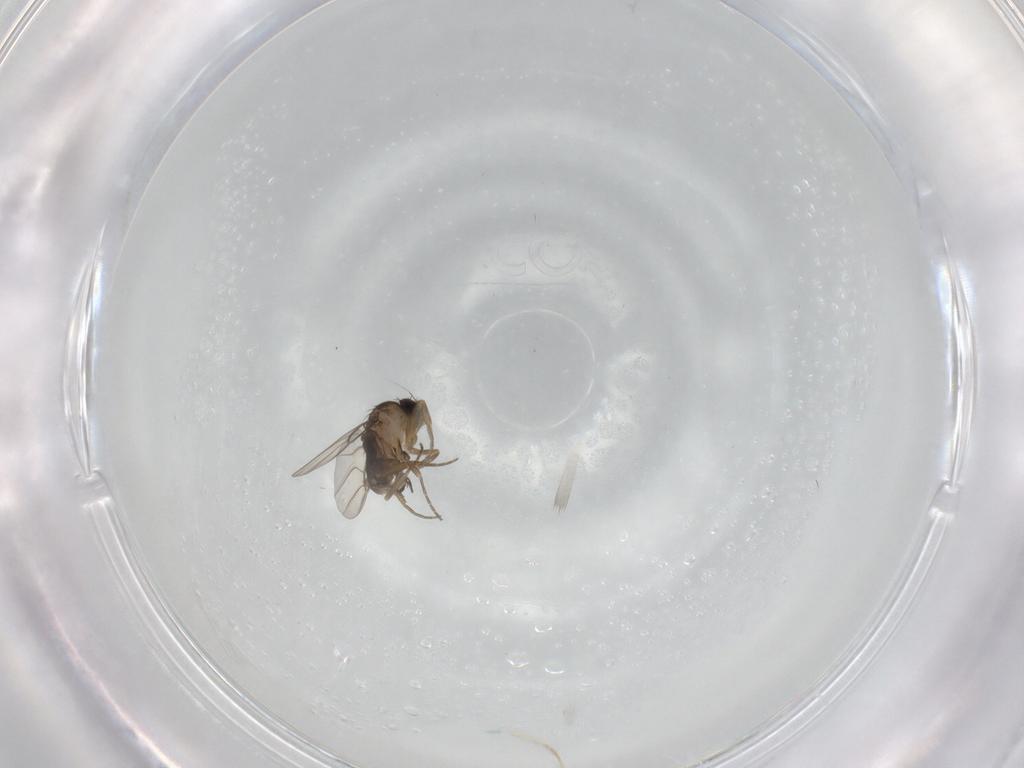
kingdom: Animalia
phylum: Arthropoda
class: Insecta
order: Diptera
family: Phoridae
